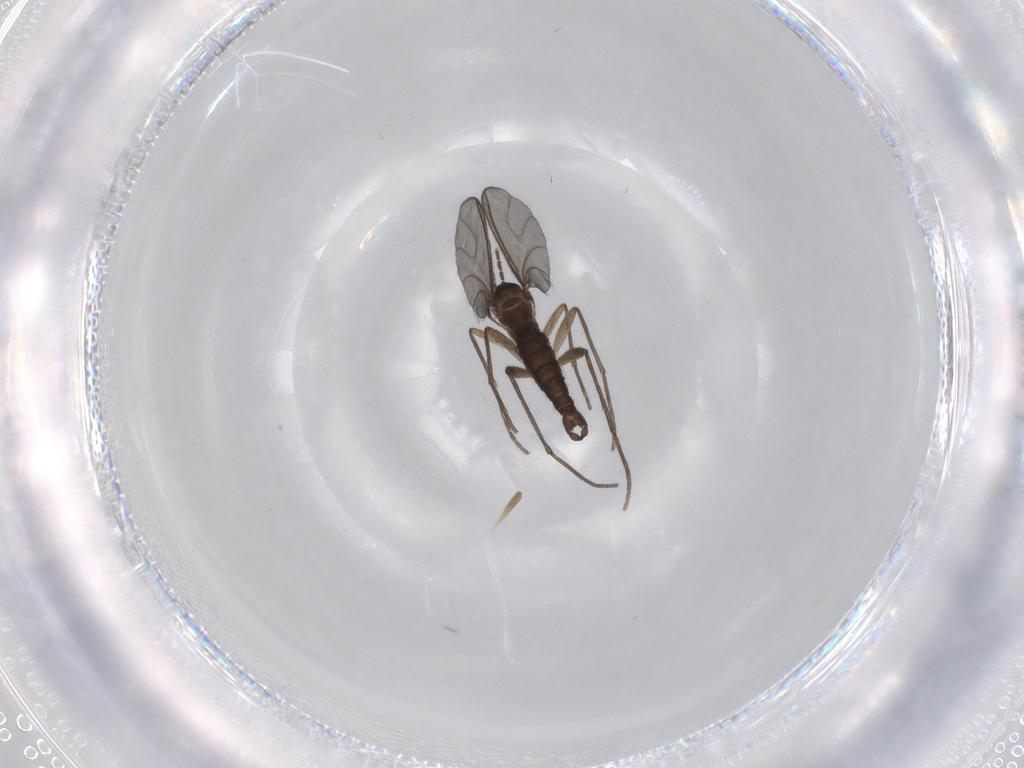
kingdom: Animalia
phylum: Arthropoda
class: Insecta
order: Diptera
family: Sciaridae
